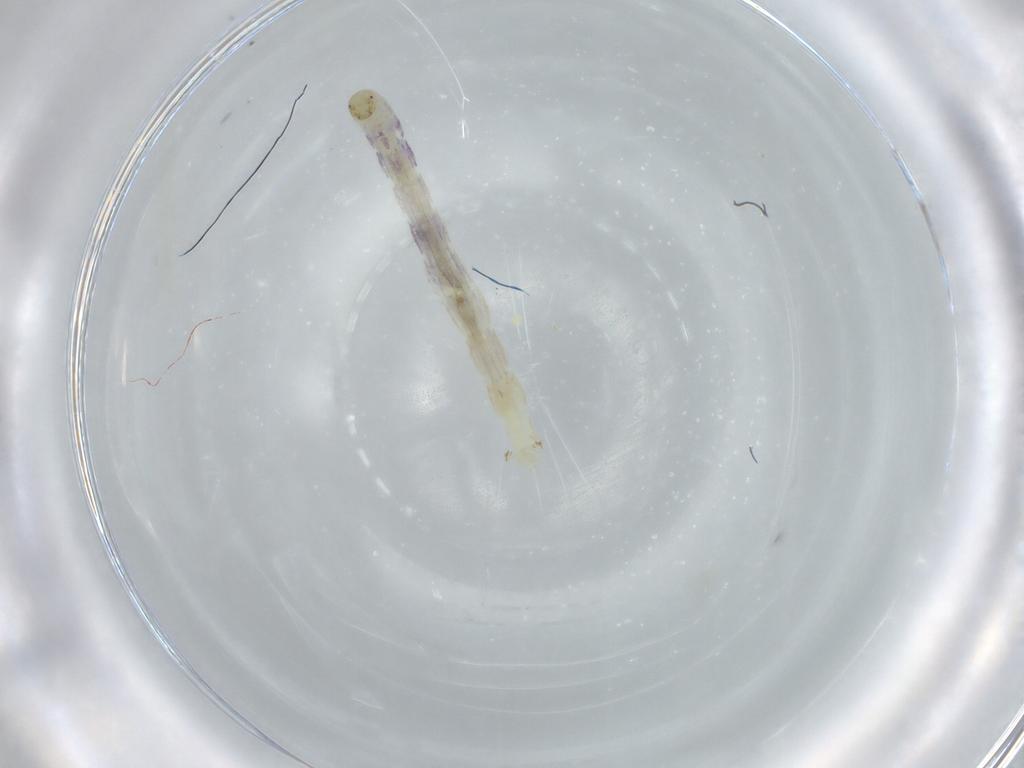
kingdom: Animalia
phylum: Arthropoda
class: Insecta
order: Diptera
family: Chironomidae
